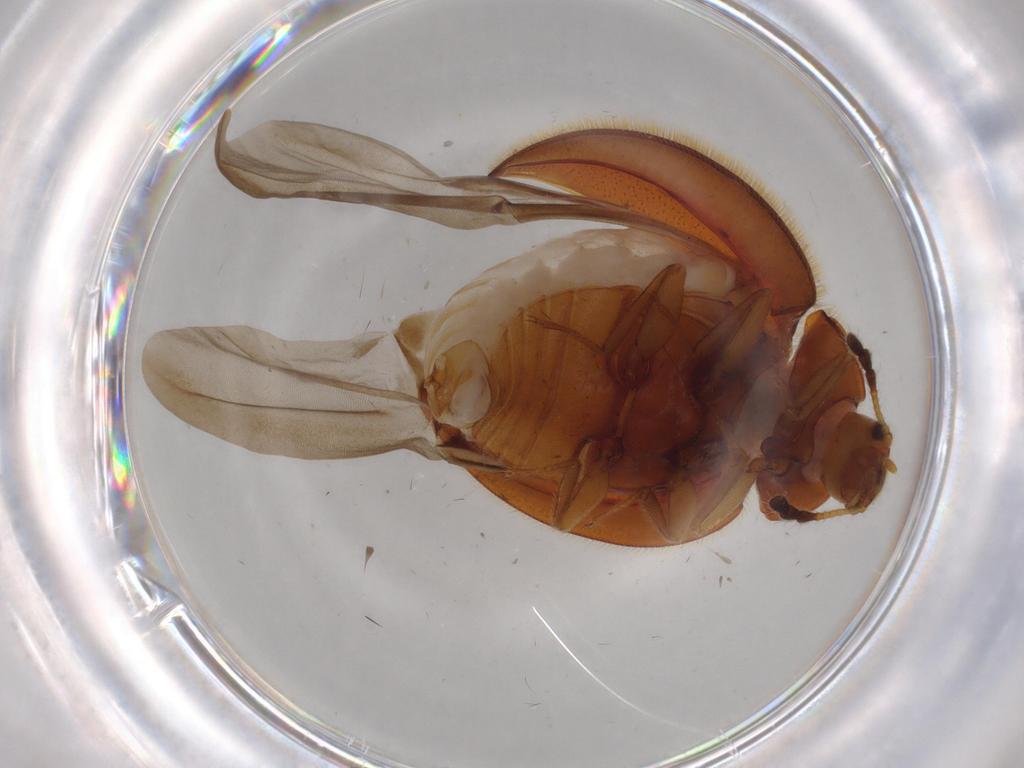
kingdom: Animalia
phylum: Arthropoda
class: Insecta
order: Coleoptera
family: Anamorphidae
